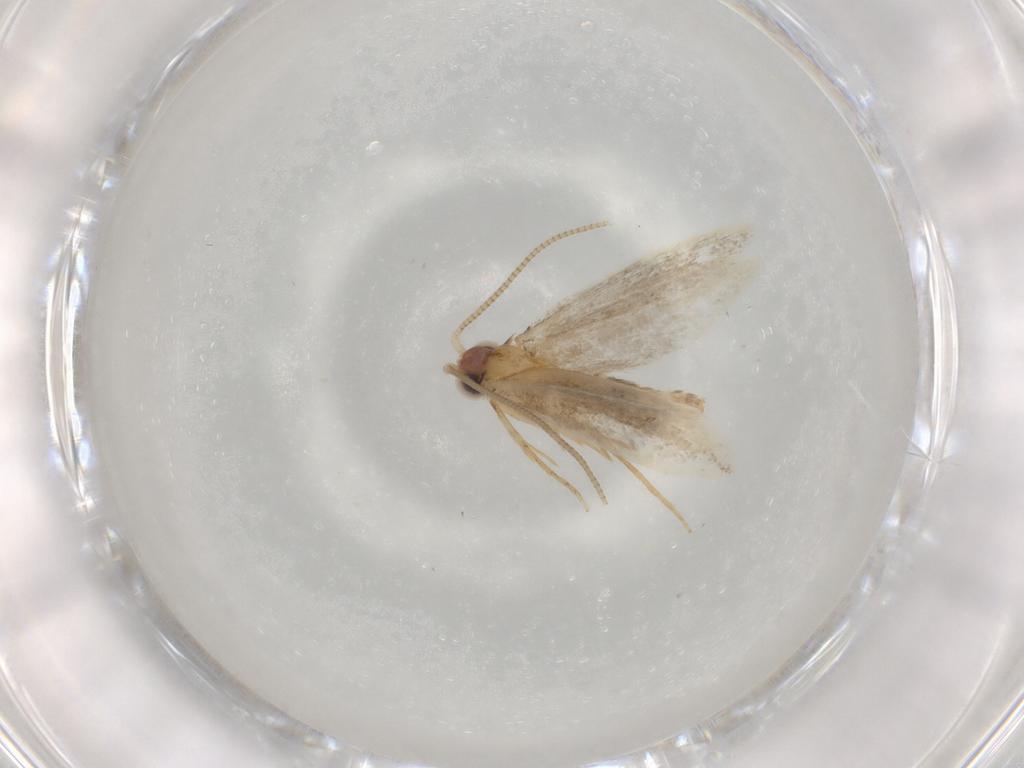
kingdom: Animalia
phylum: Arthropoda
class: Insecta
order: Lepidoptera
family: Nepticulidae
